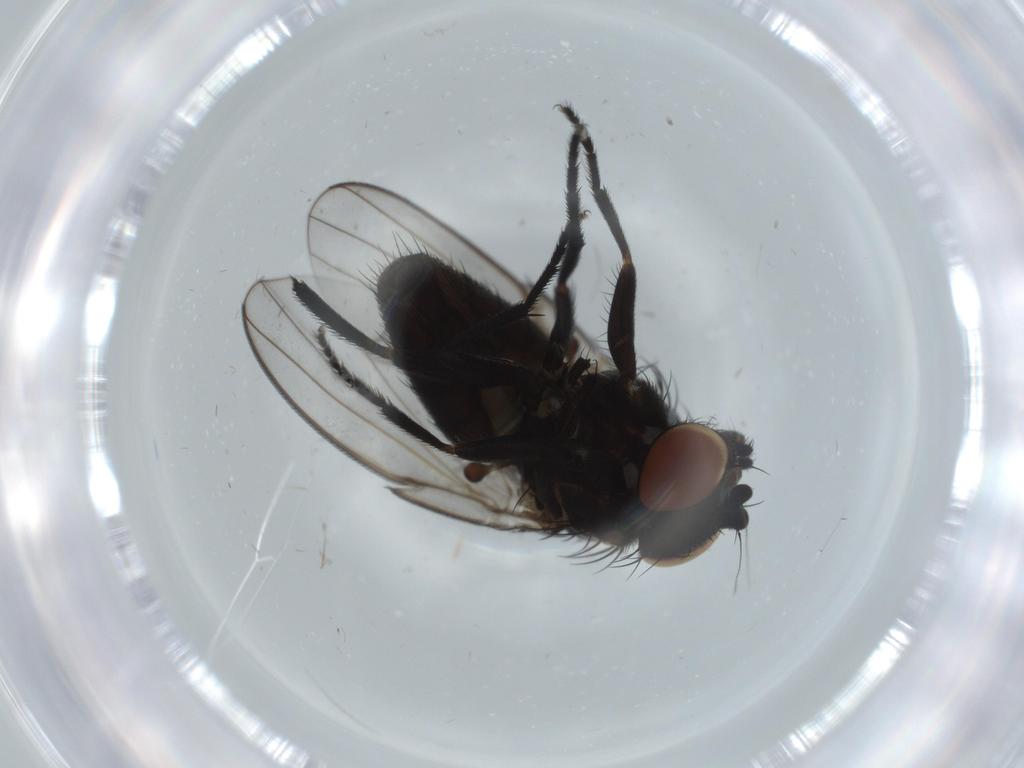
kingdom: Animalia
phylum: Arthropoda
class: Insecta
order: Diptera
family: Milichiidae
